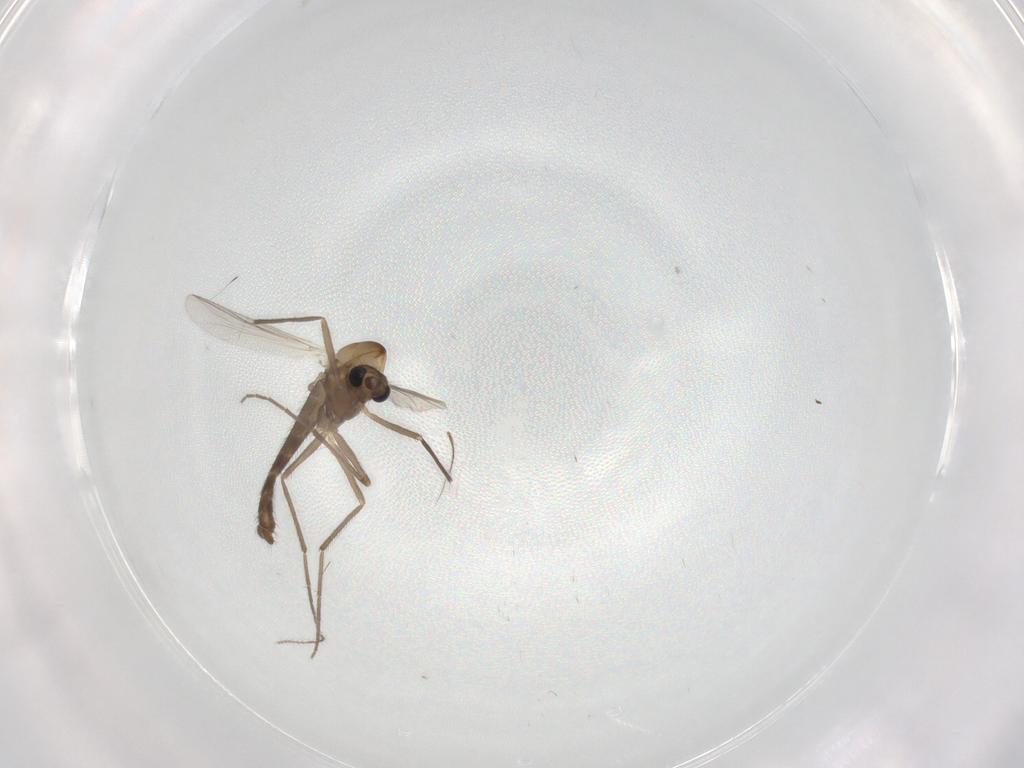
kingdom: Animalia
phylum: Arthropoda
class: Insecta
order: Diptera
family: Chironomidae
